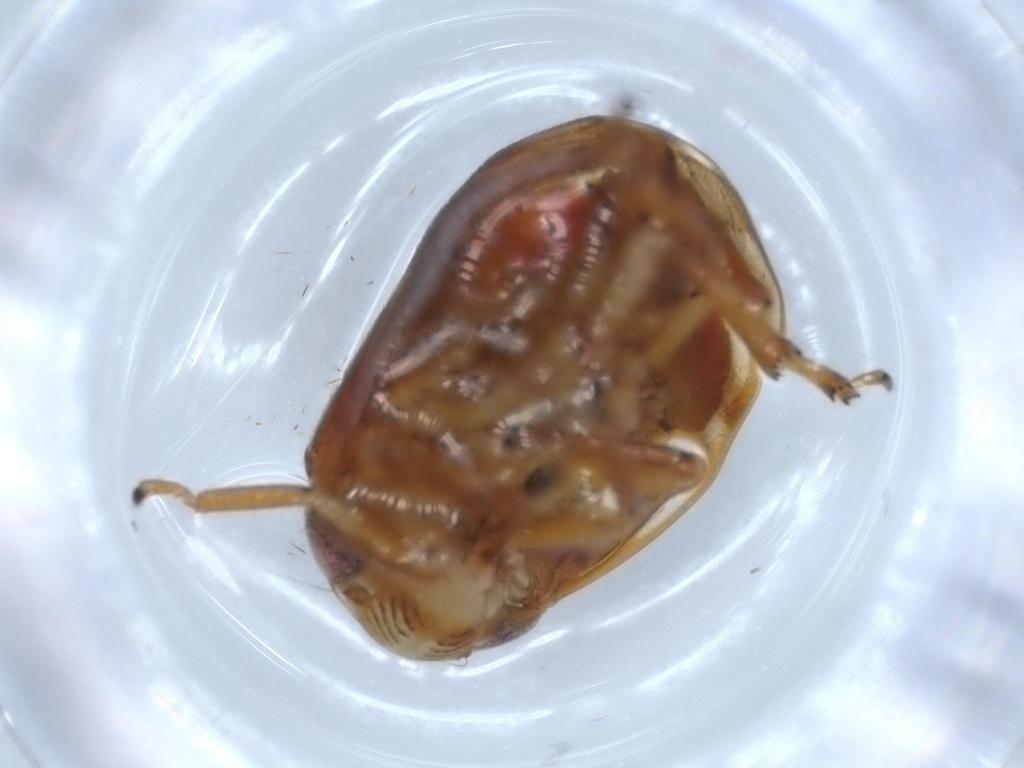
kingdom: Animalia
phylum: Arthropoda
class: Insecta
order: Hemiptera
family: Clastopteridae
